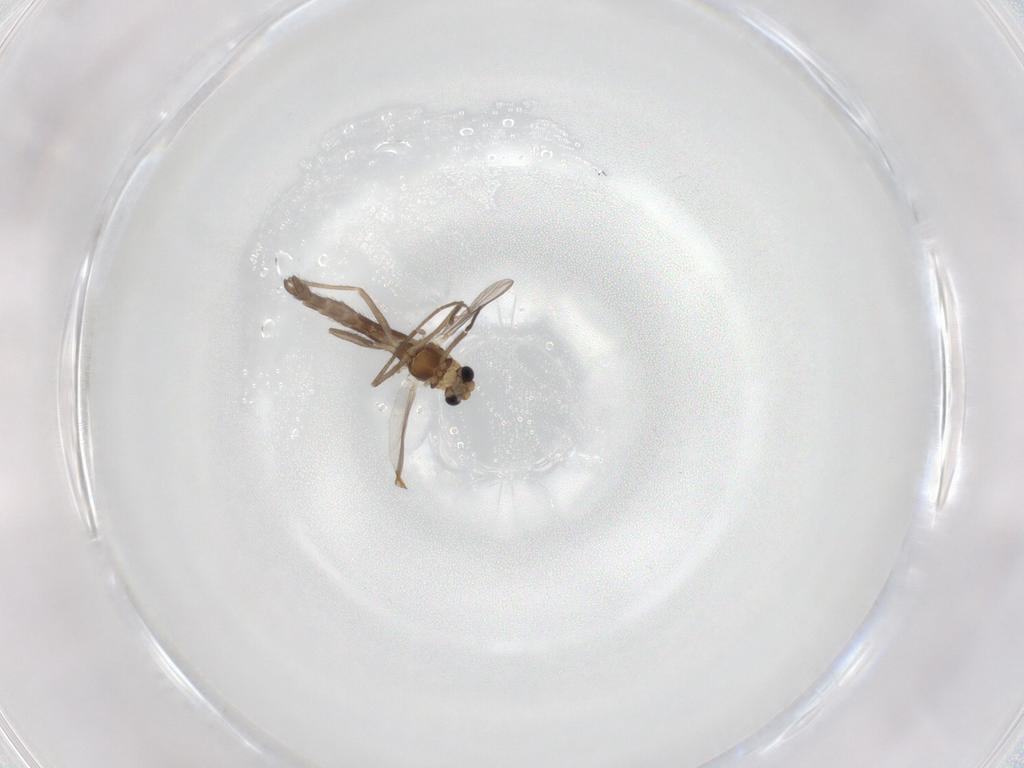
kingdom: Animalia
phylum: Arthropoda
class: Insecta
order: Diptera
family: Chironomidae
